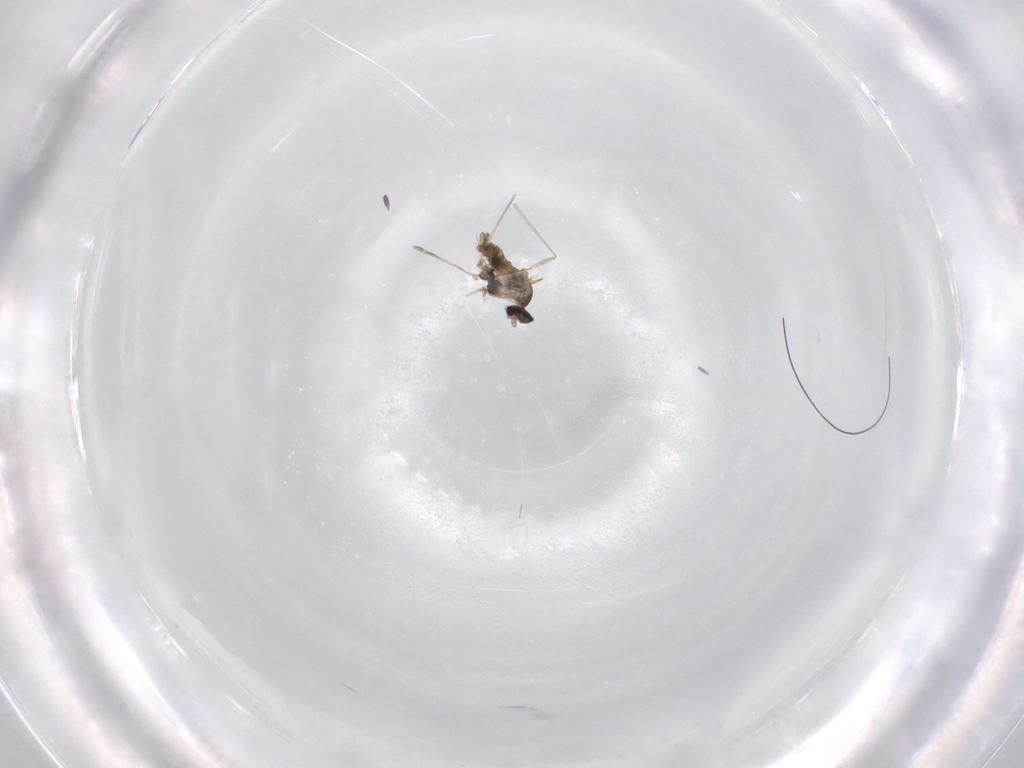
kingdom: Animalia
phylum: Arthropoda
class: Insecta
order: Diptera
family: Cecidomyiidae
